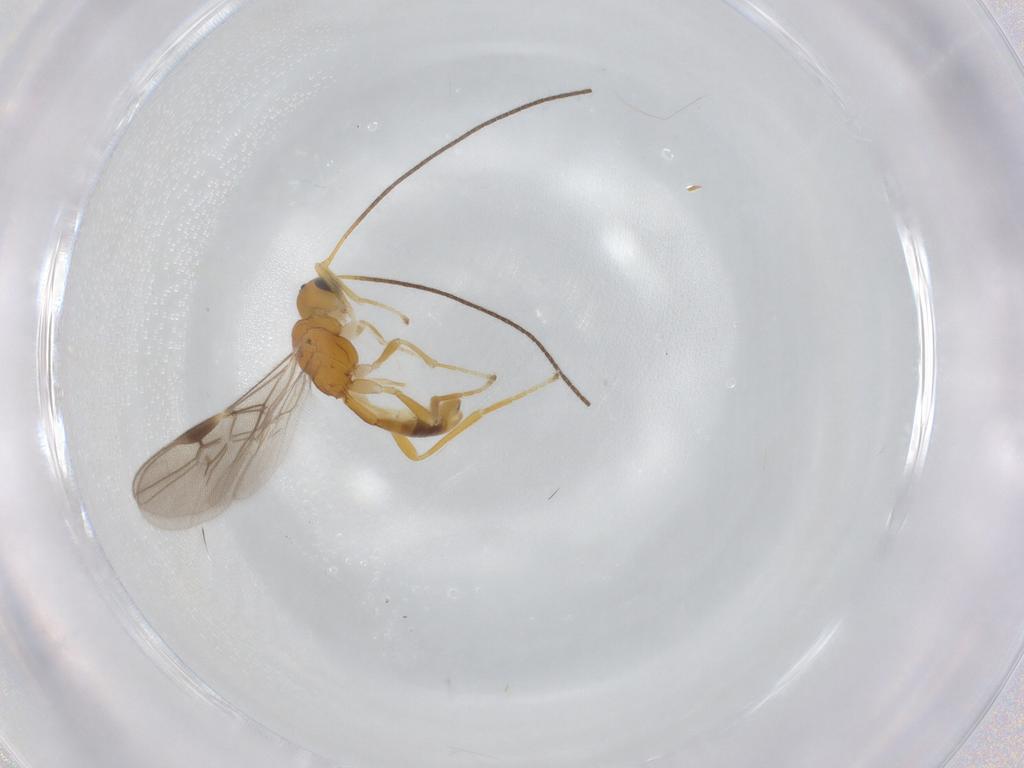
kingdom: Animalia
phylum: Arthropoda
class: Insecta
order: Hymenoptera
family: Braconidae
